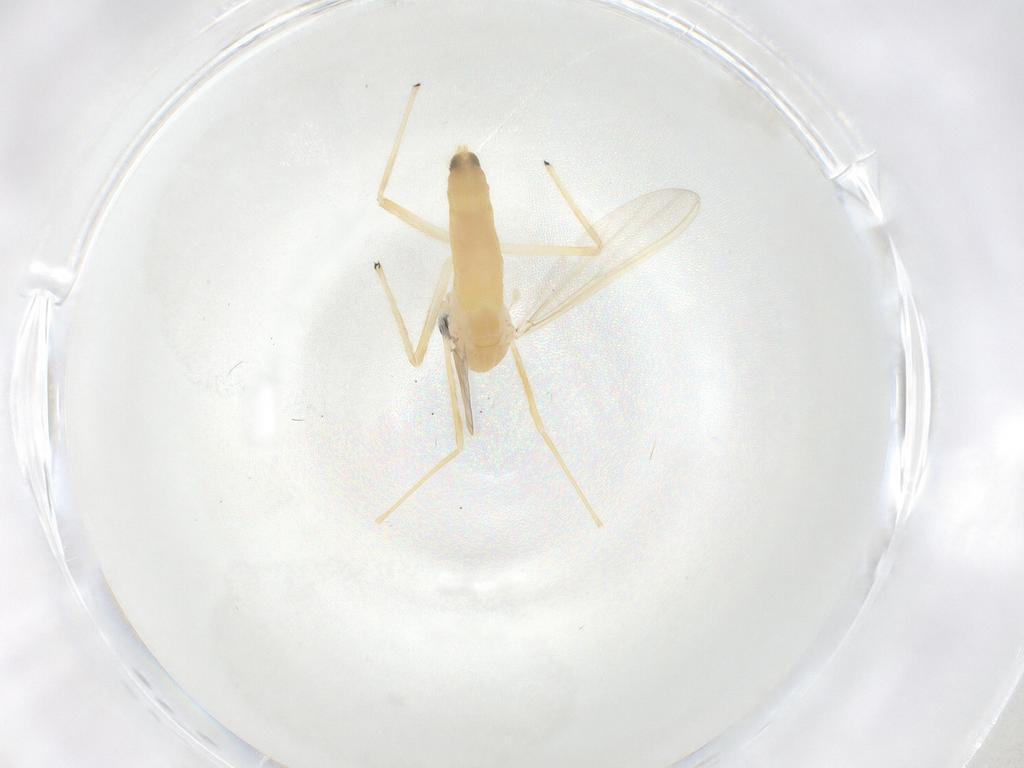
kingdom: Animalia
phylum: Arthropoda
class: Insecta
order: Diptera
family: Chironomidae
